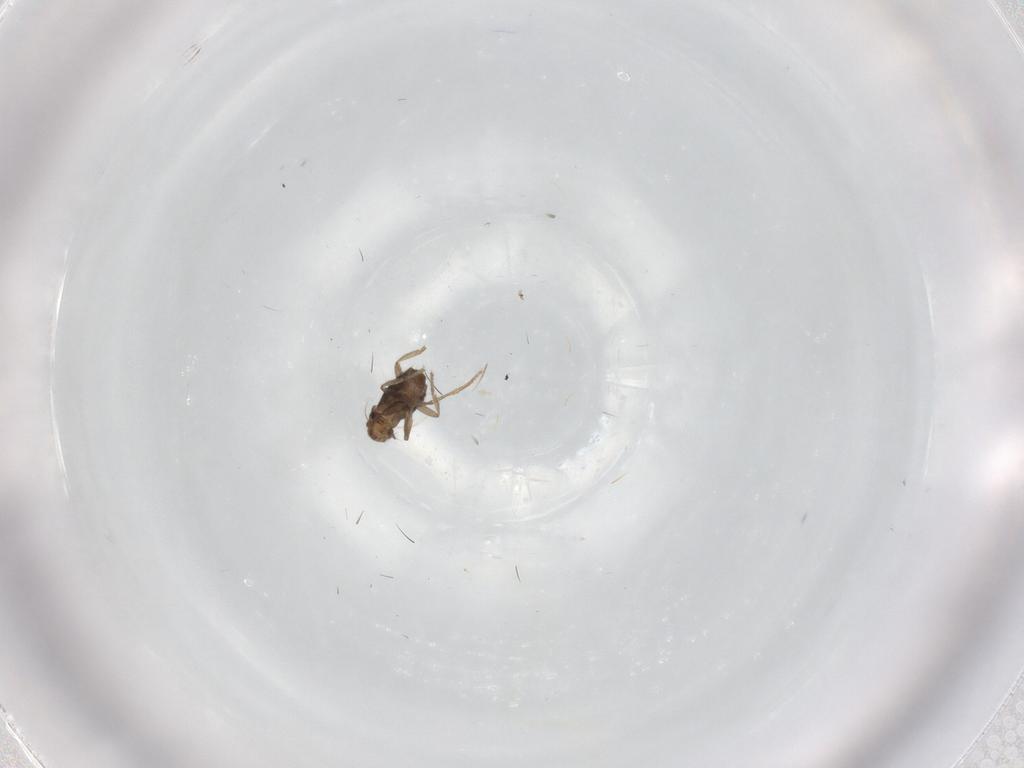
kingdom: Animalia
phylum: Arthropoda
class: Insecta
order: Diptera
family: Phoridae
